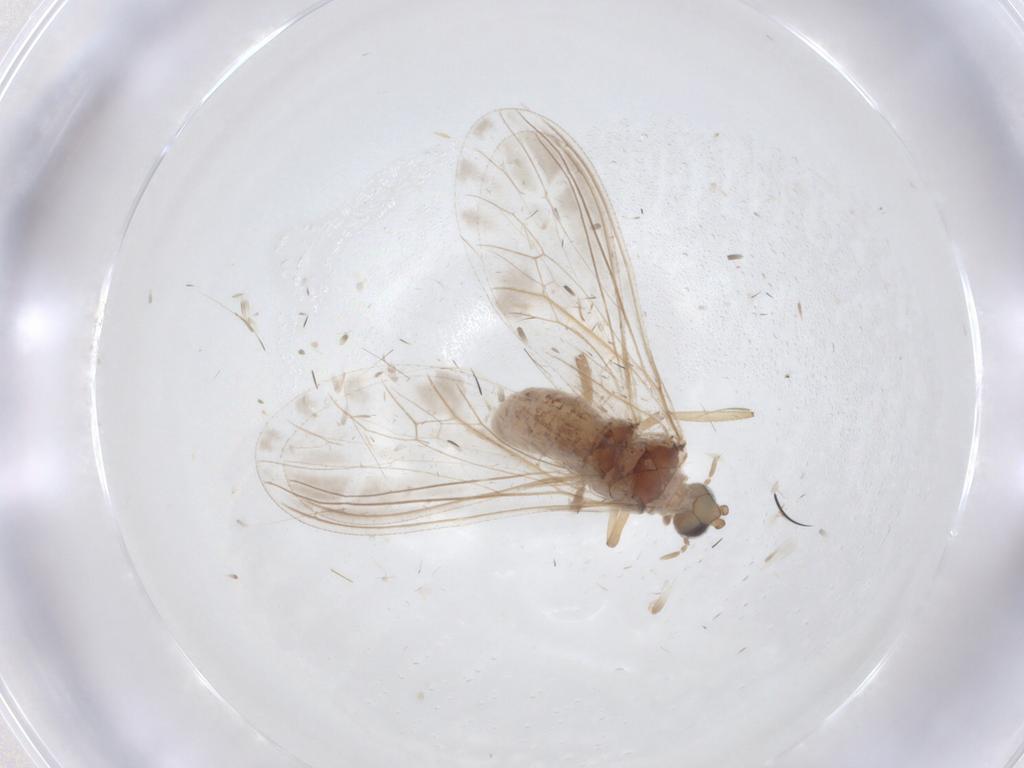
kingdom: Animalia
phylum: Arthropoda
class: Insecta
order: Neuroptera
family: Coniopterygidae
